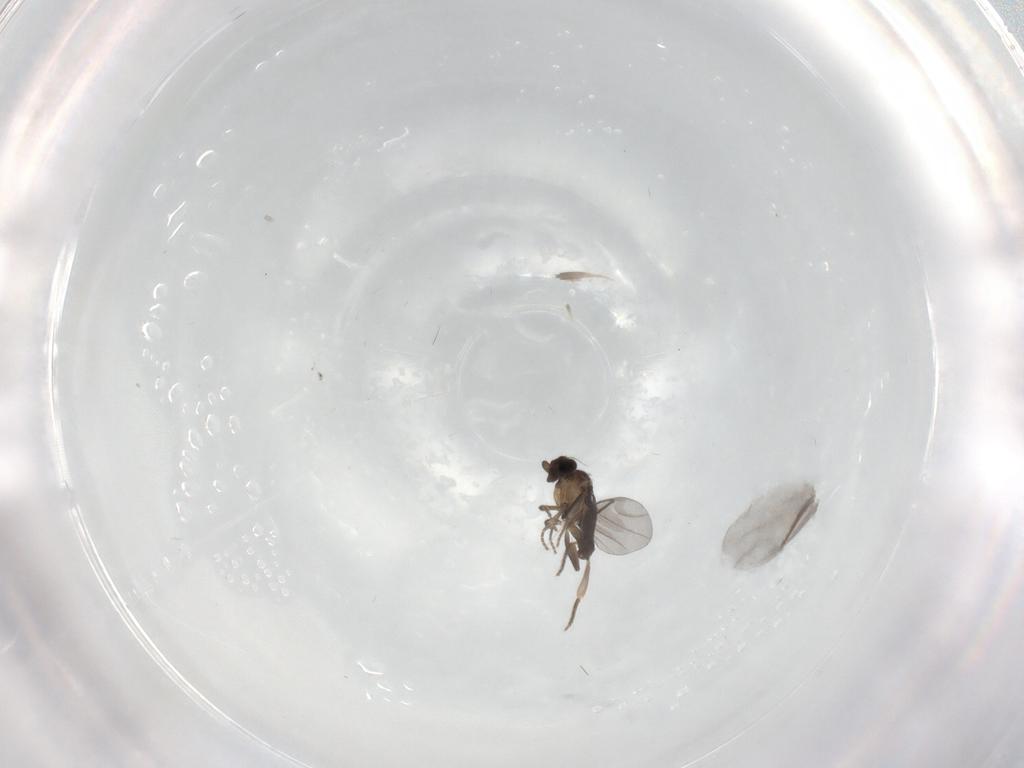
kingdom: Animalia
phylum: Arthropoda
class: Insecta
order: Diptera
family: Chironomidae
